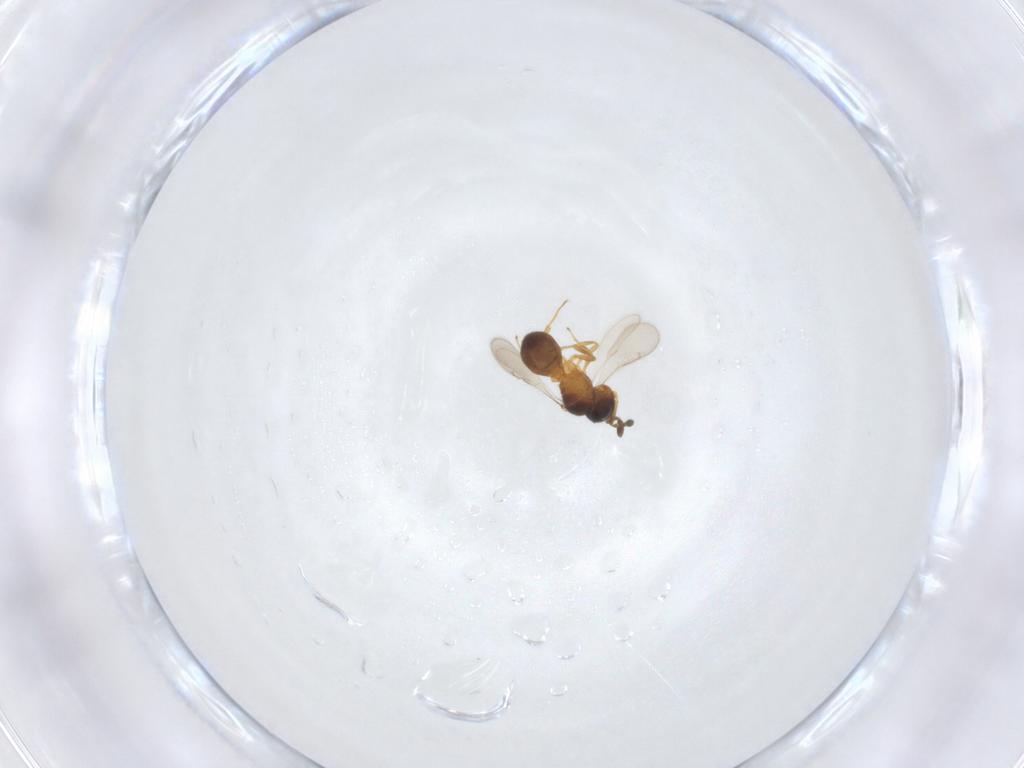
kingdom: Animalia
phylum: Arthropoda
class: Insecta
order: Hymenoptera
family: Scelionidae
